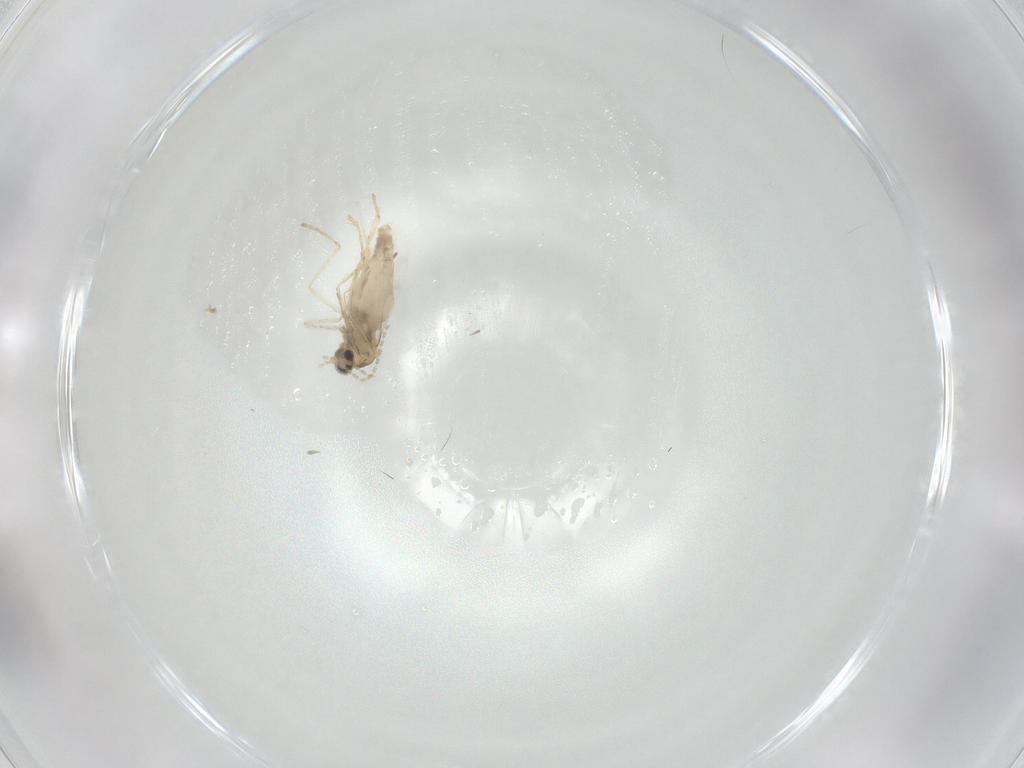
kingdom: Animalia
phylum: Arthropoda
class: Insecta
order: Diptera
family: Cecidomyiidae
